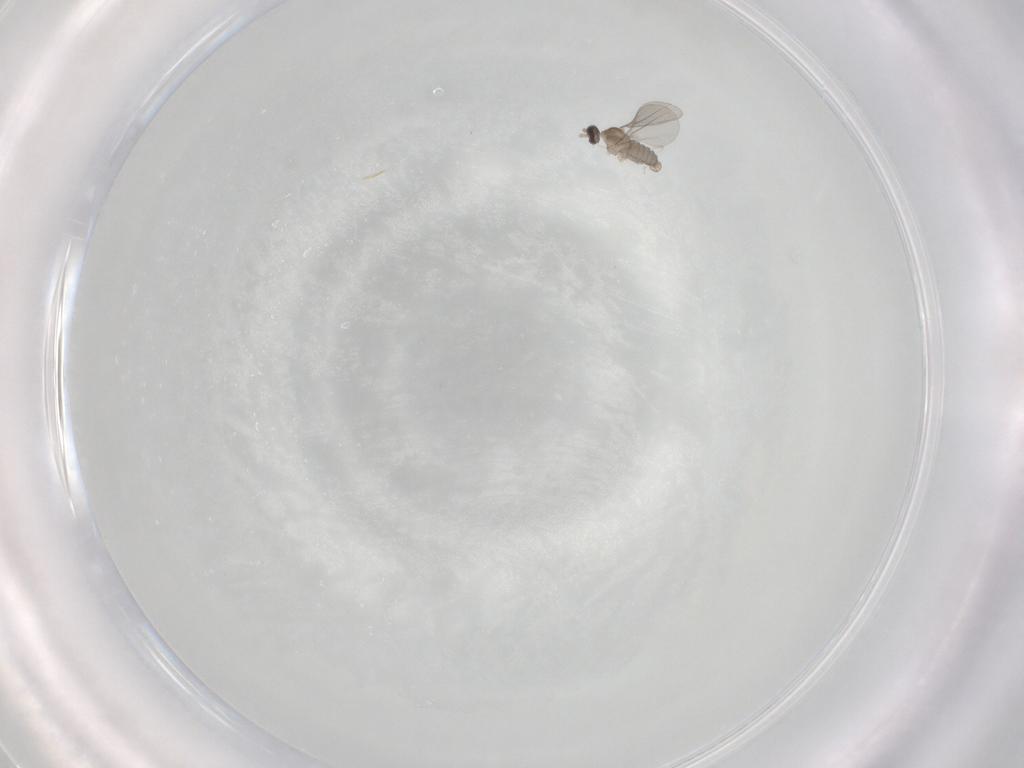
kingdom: Animalia
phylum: Arthropoda
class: Insecta
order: Diptera
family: Cecidomyiidae
